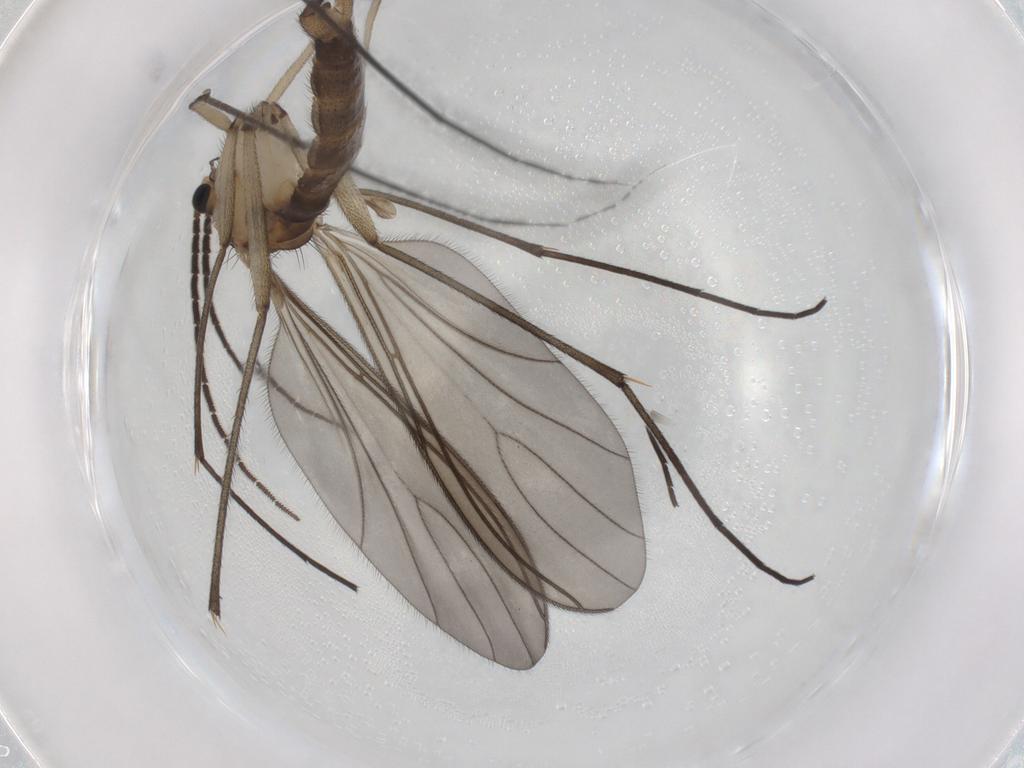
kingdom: Animalia
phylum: Arthropoda
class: Insecta
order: Diptera
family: Sciaridae
